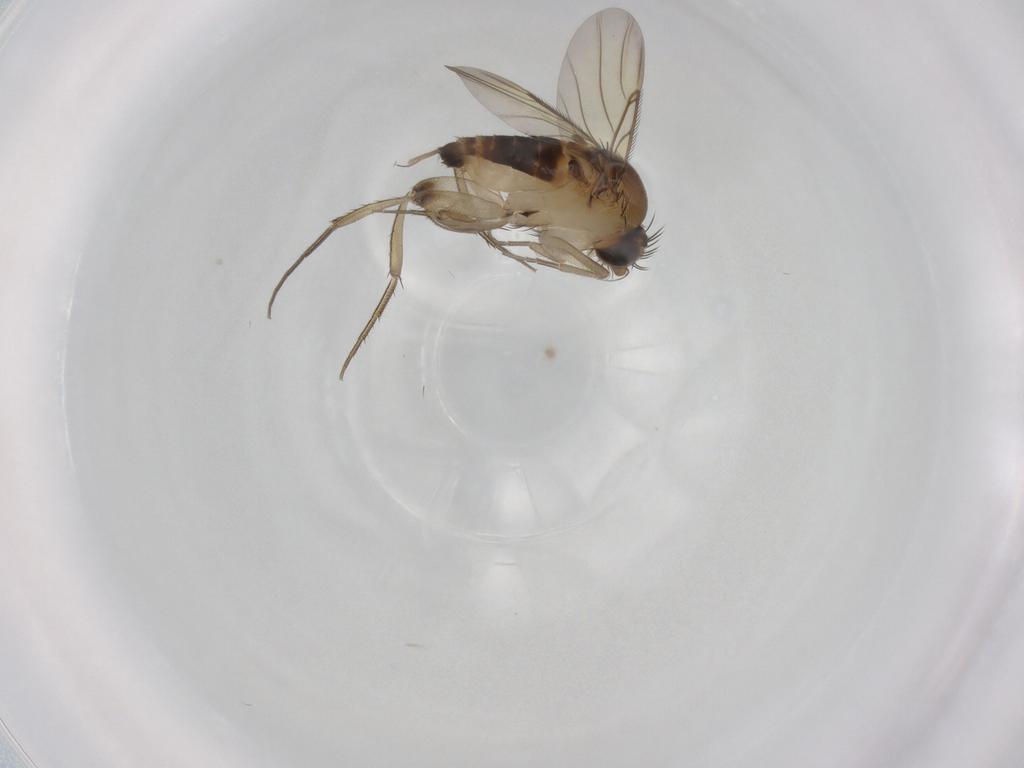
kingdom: Animalia
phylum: Arthropoda
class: Insecta
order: Diptera
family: Phoridae
